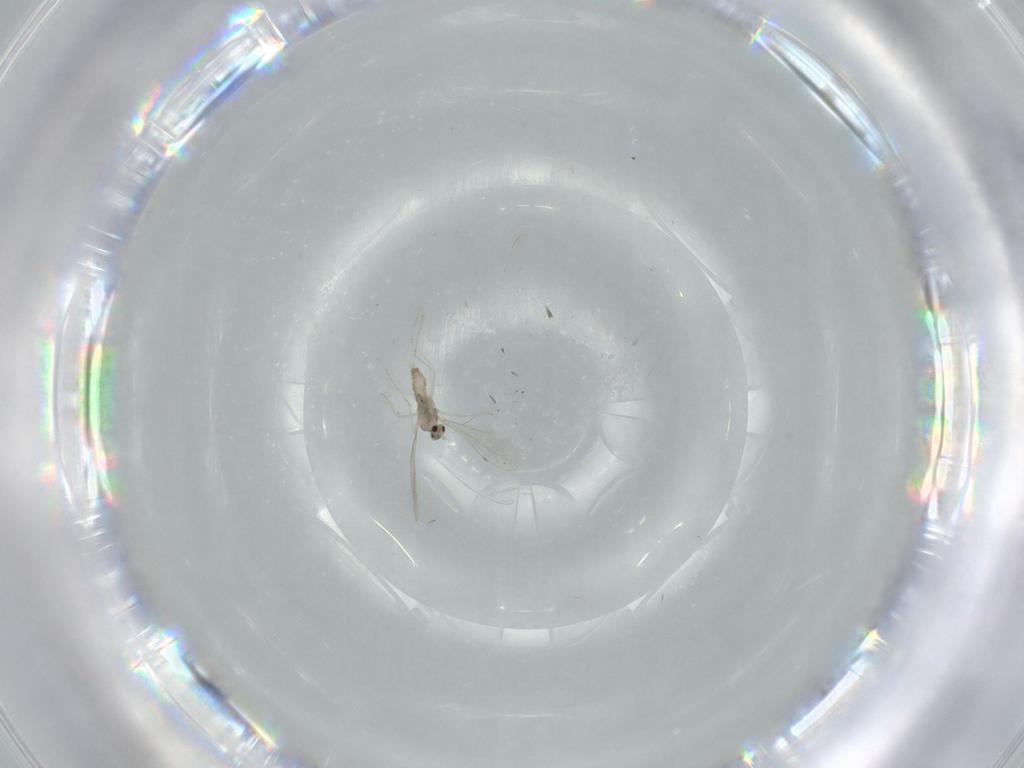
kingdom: Animalia
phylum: Arthropoda
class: Insecta
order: Diptera
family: Cecidomyiidae
